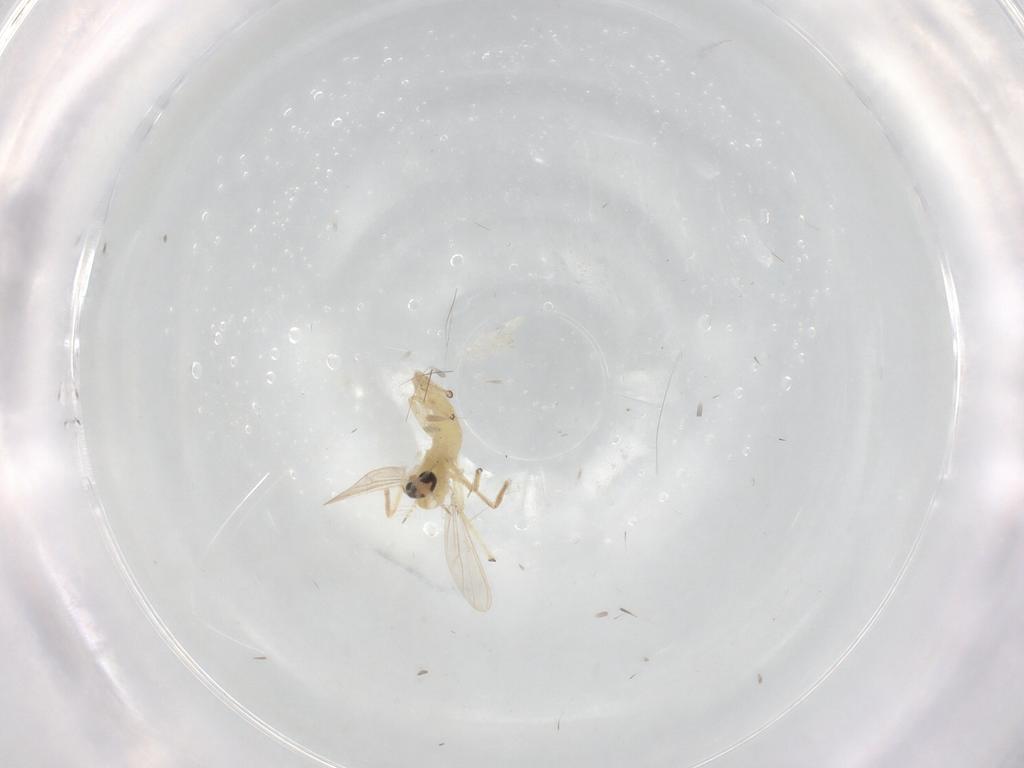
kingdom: Animalia
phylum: Arthropoda
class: Insecta
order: Diptera
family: Chironomidae
